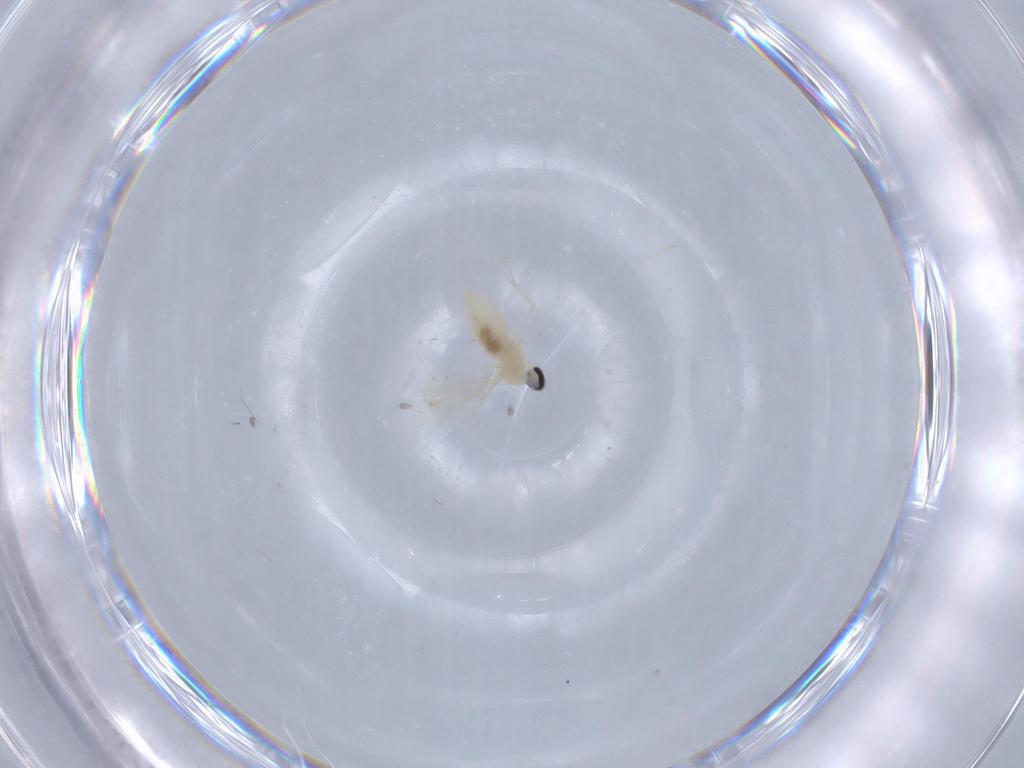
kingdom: Animalia
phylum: Arthropoda
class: Insecta
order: Diptera
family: Cecidomyiidae
